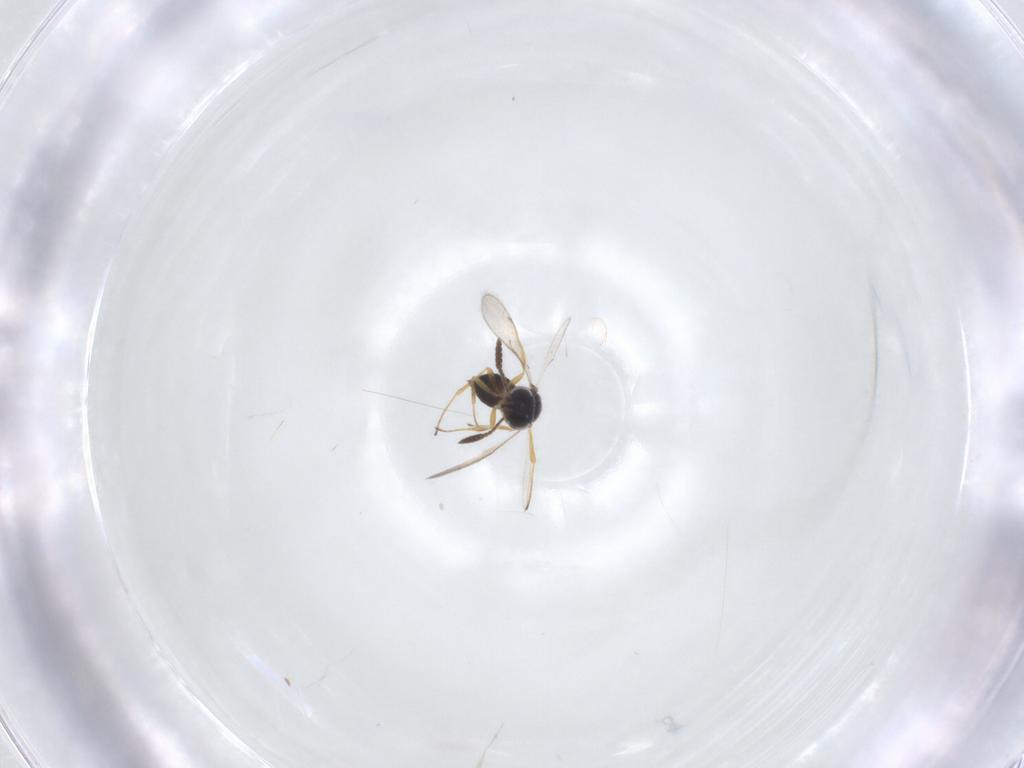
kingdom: Animalia
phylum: Arthropoda
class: Insecta
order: Hymenoptera
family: Scelionidae
